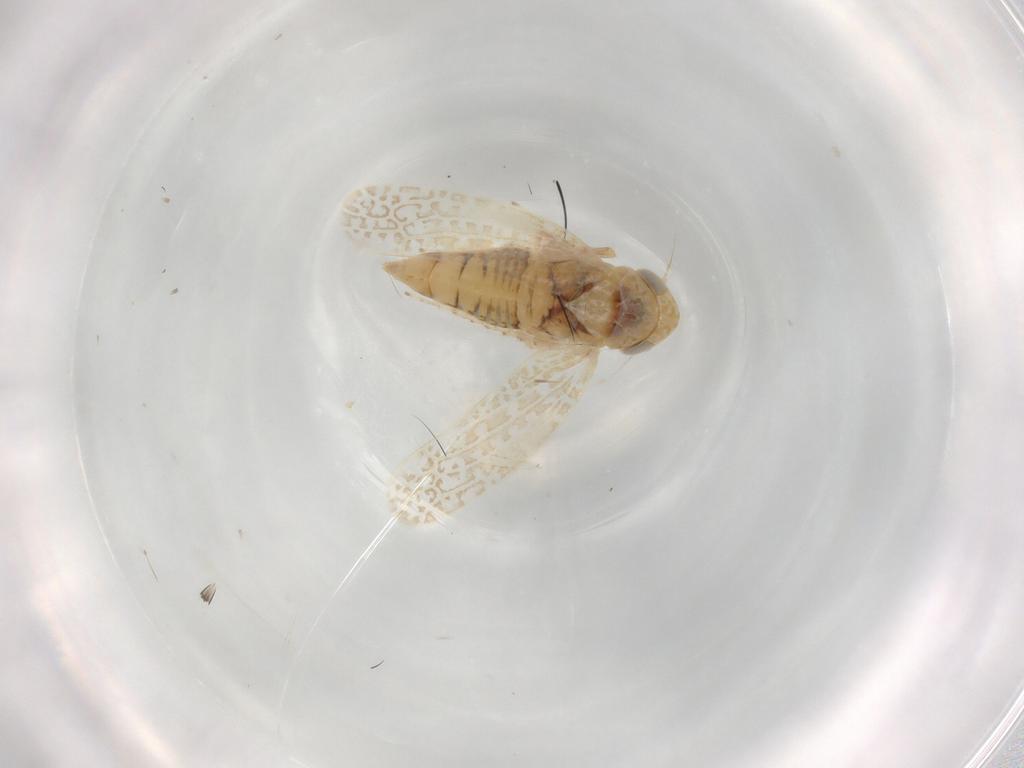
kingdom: Animalia
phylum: Arthropoda
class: Insecta
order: Hemiptera
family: Cicadellidae
